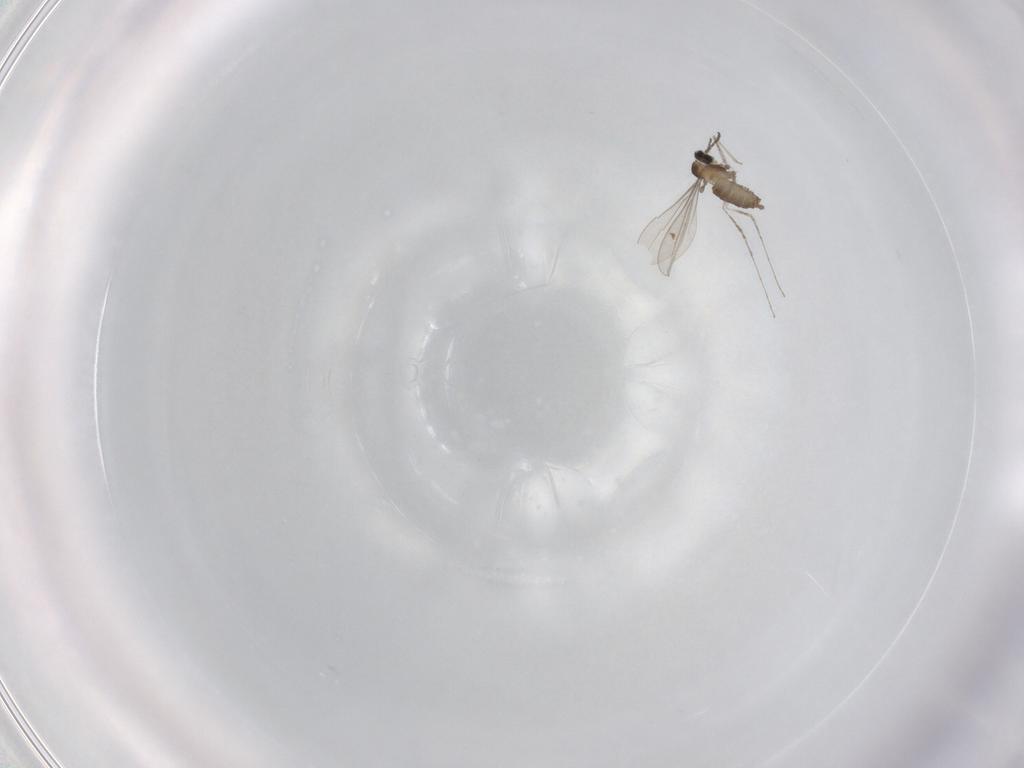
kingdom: Animalia
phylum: Arthropoda
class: Insecta
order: Diptera
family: Cecidomyiidae
